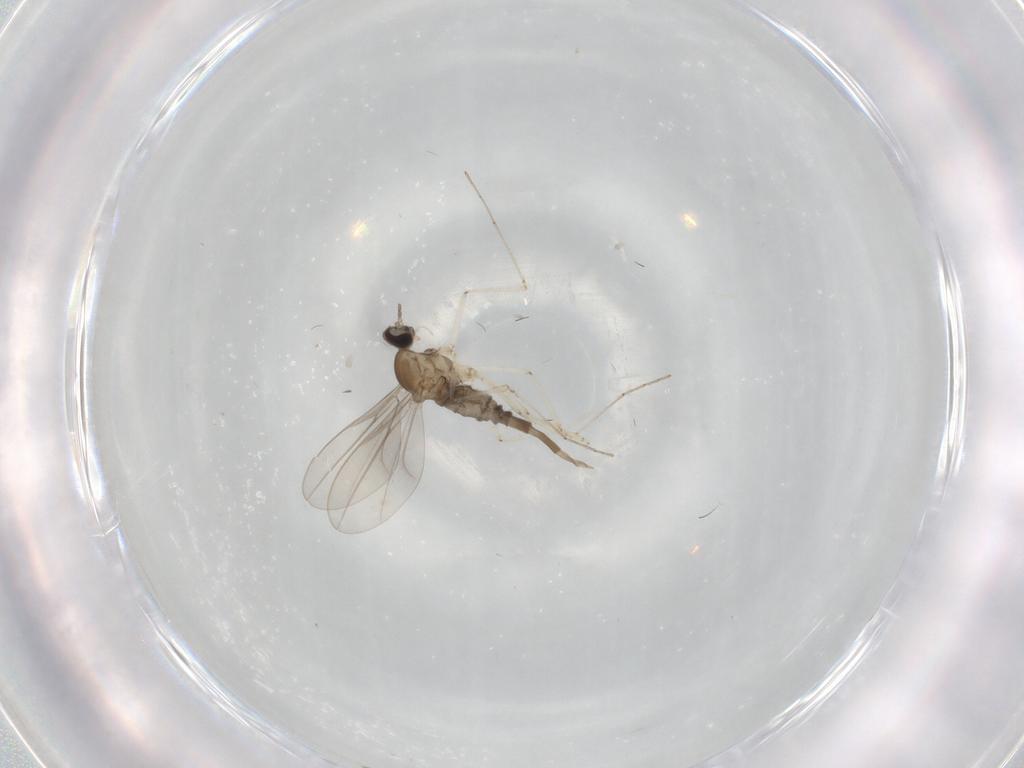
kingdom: Animalia
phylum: Arthropoda
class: Insecta
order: Diptera
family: Cecidomyiidae
